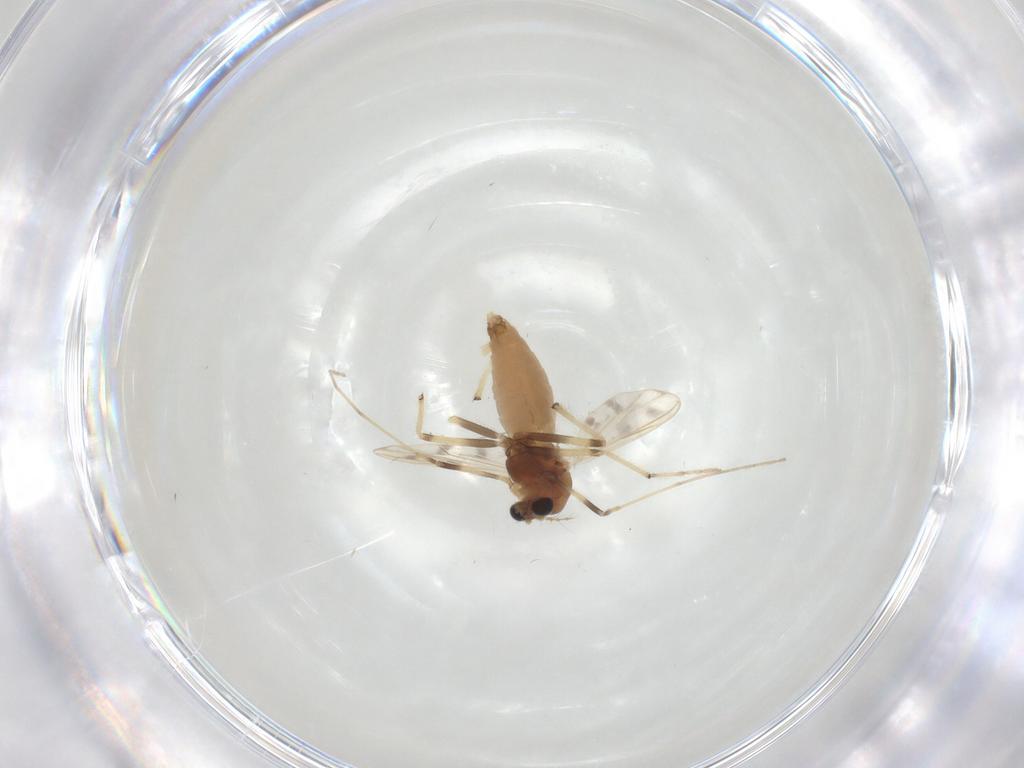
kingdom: Animalia
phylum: Arthropoda
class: Insecta
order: Diptera
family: Chironomidae
